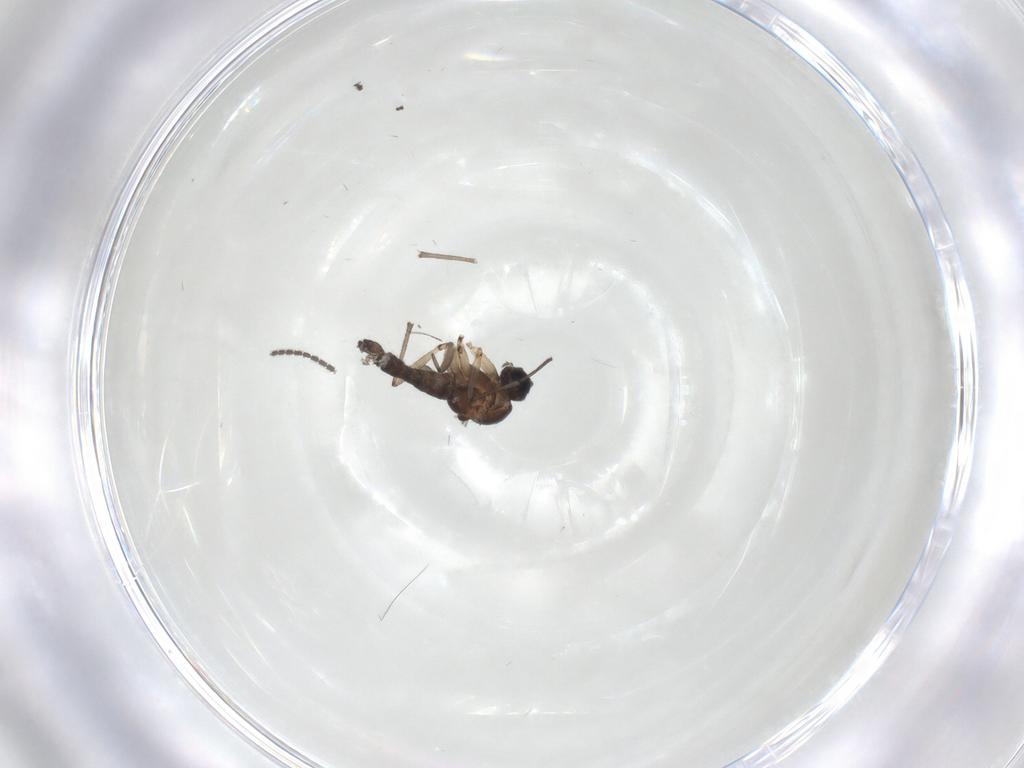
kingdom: Animalia
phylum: Arthropoda
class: Insecta
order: Diptera
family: Sciaridae
